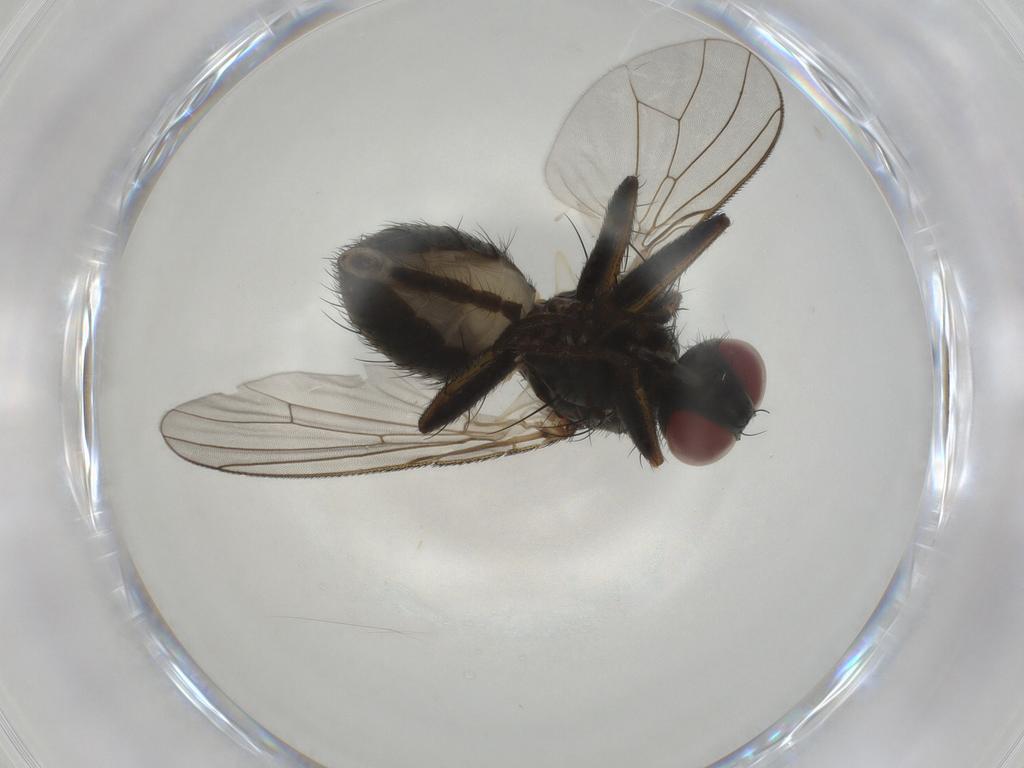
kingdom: Animalia
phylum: Arthropoda
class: Insecta
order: Diptera
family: Muscidae
